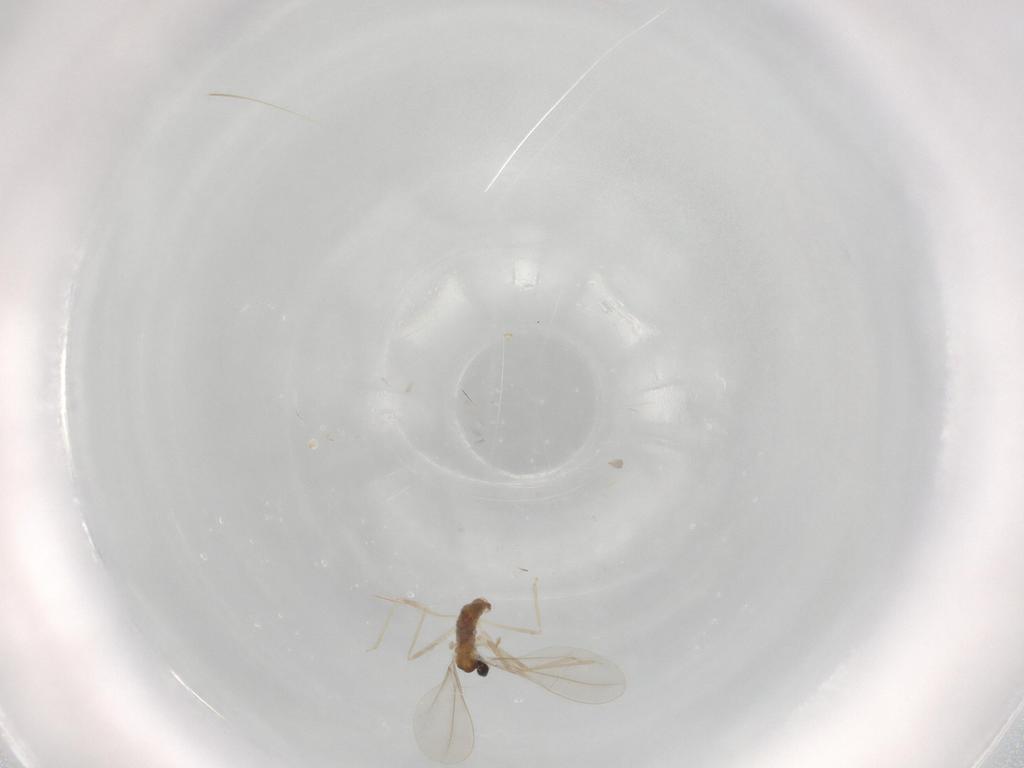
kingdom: Animalia
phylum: Arthropoda
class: Insecta
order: Diptera
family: Cecidomyiidae
